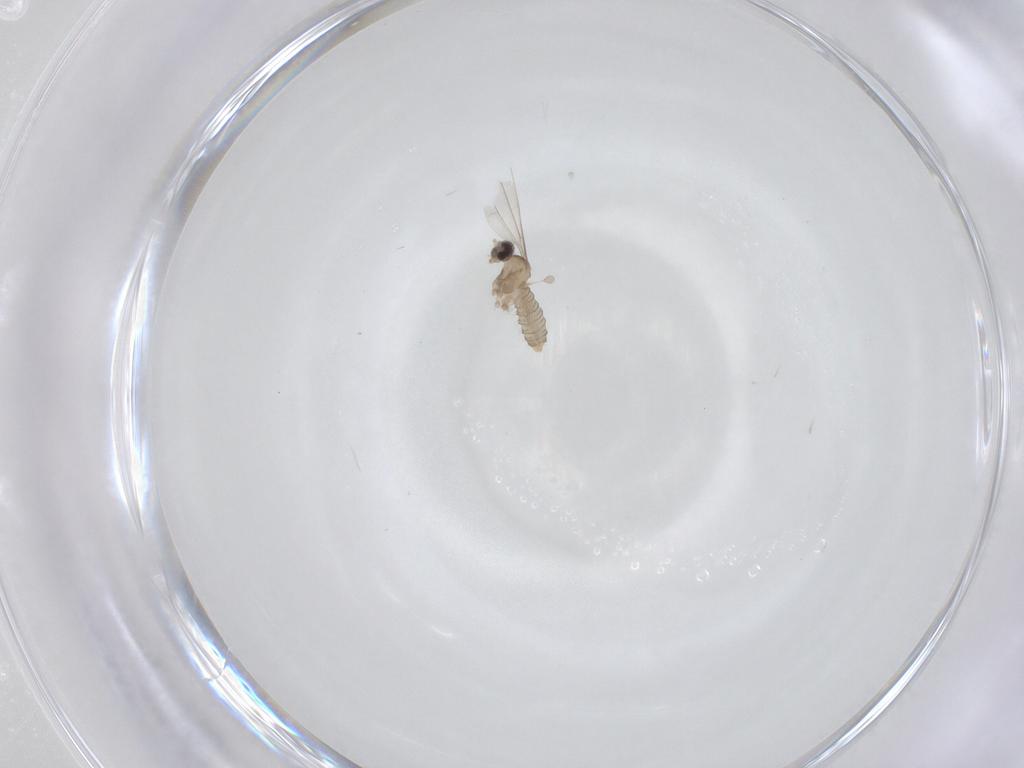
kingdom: Animalia
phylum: Arthropoda
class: Insecta
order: Diptera
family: Cecidomyiidae
